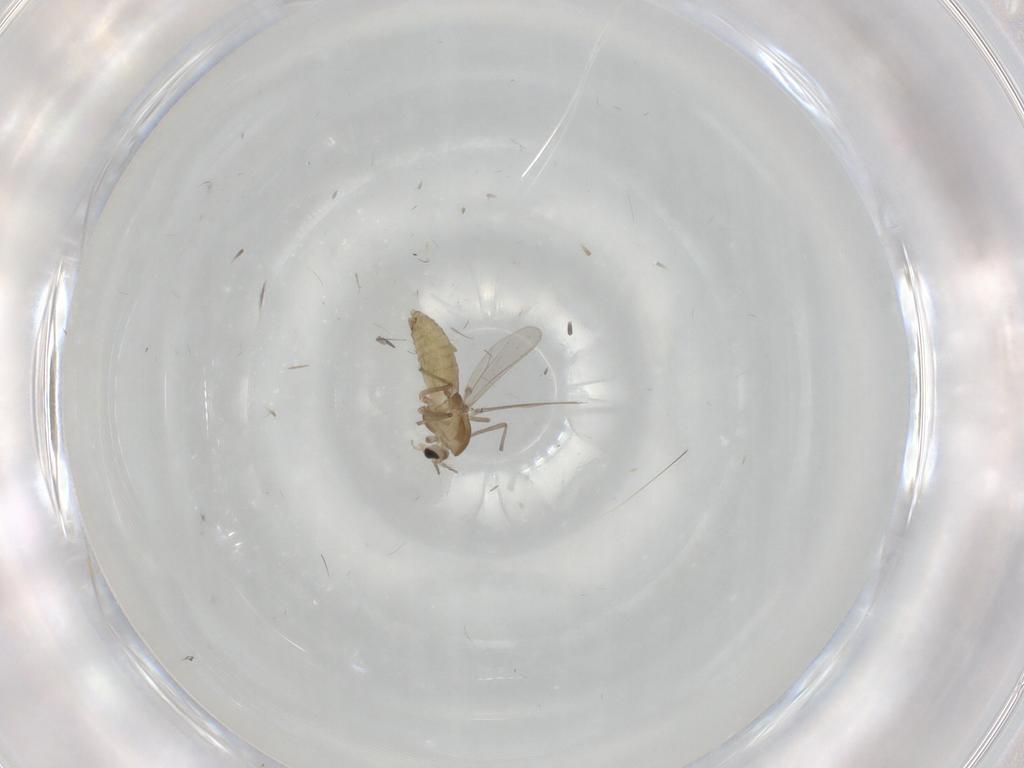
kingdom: Animalia
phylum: Arthropoda
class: Insecta
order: Diptera
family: Chironomidae
